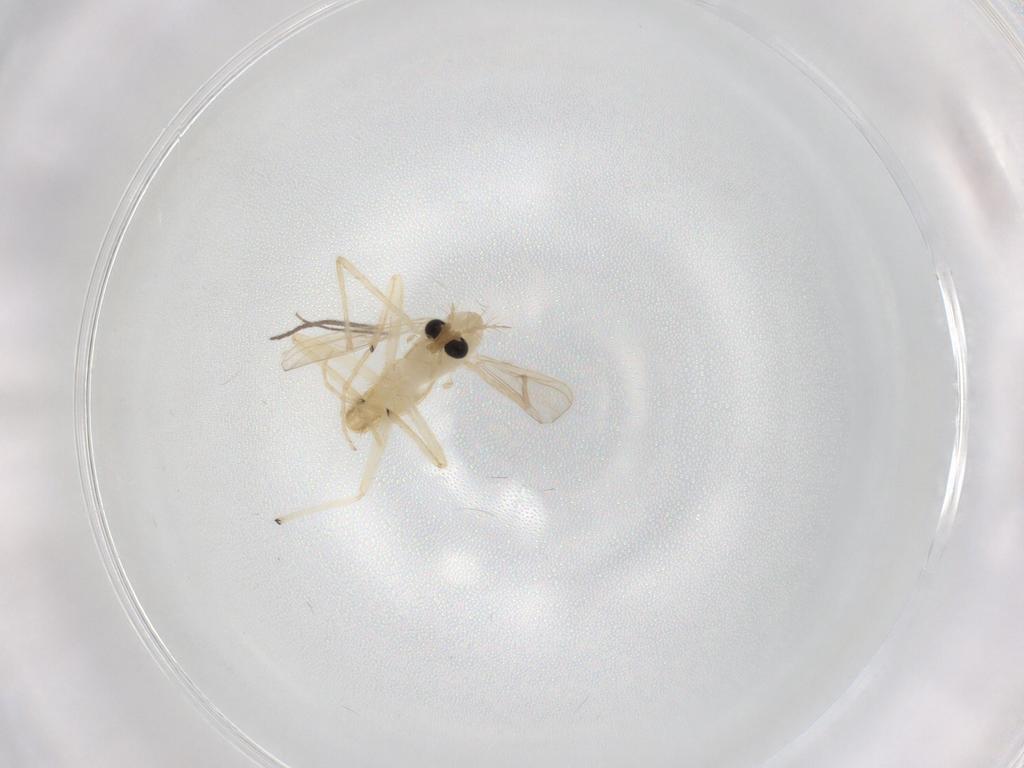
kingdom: Animalia
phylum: Arthropoda
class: Insecta
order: Diptera
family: Chironomidae
